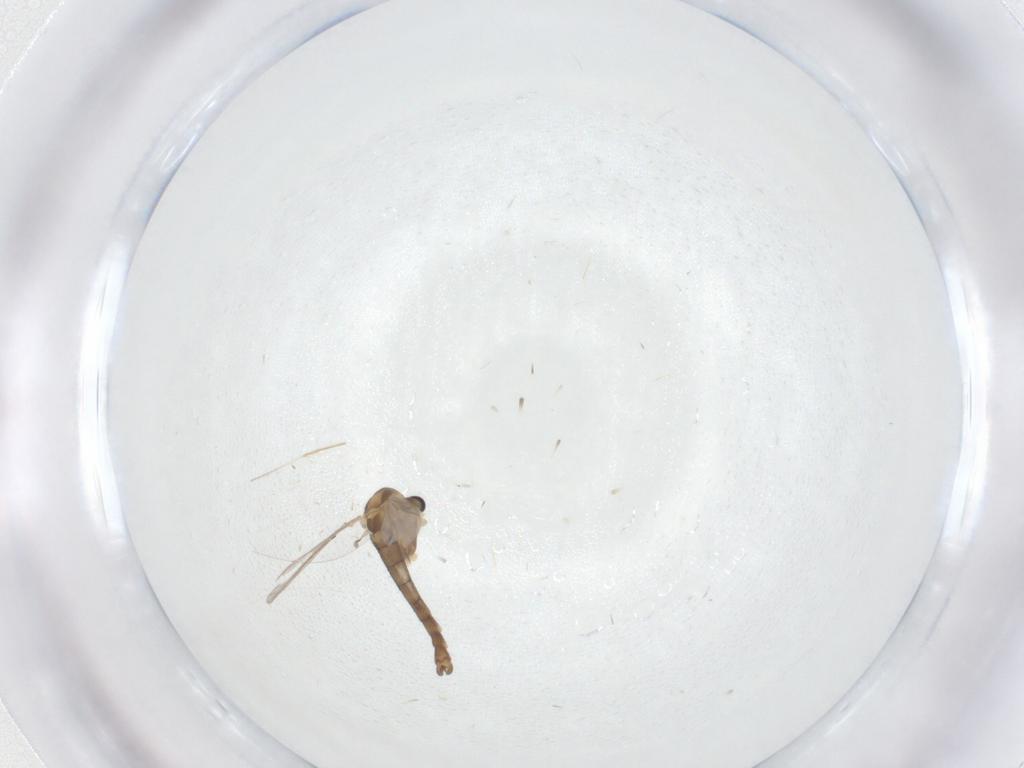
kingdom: Animalia
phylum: Arthropoda
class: Insecta
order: Diptera
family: Chironomidae
